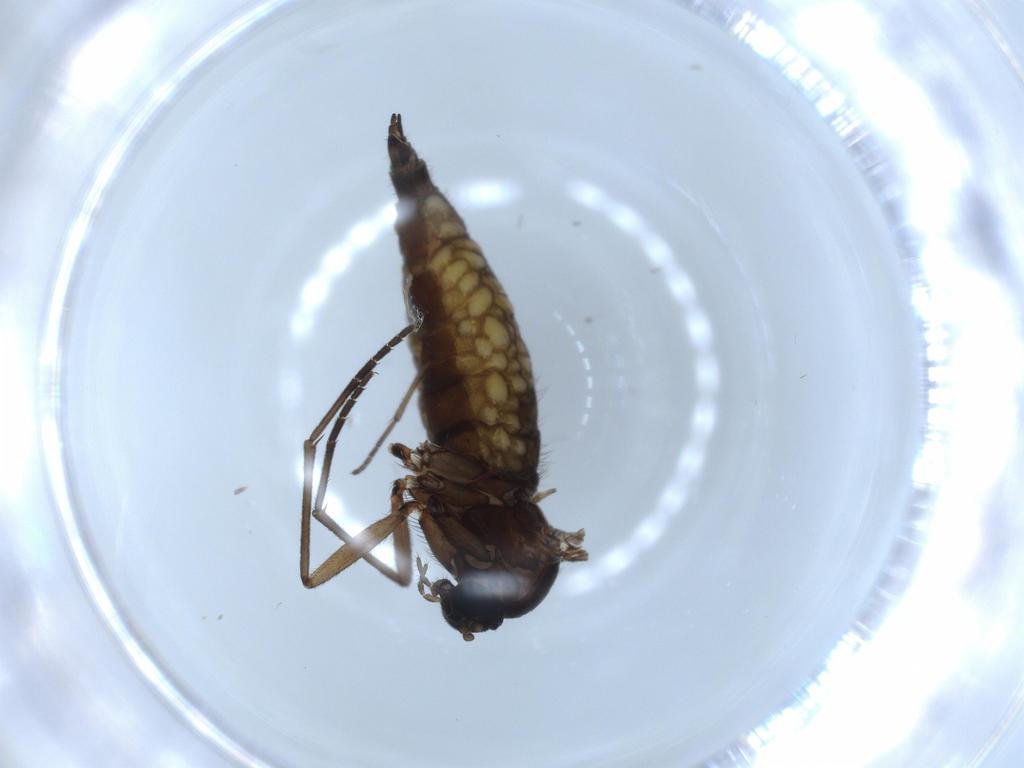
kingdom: Animalia
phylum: Arthropoda
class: Insecta
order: Diptera
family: Sciaridae
